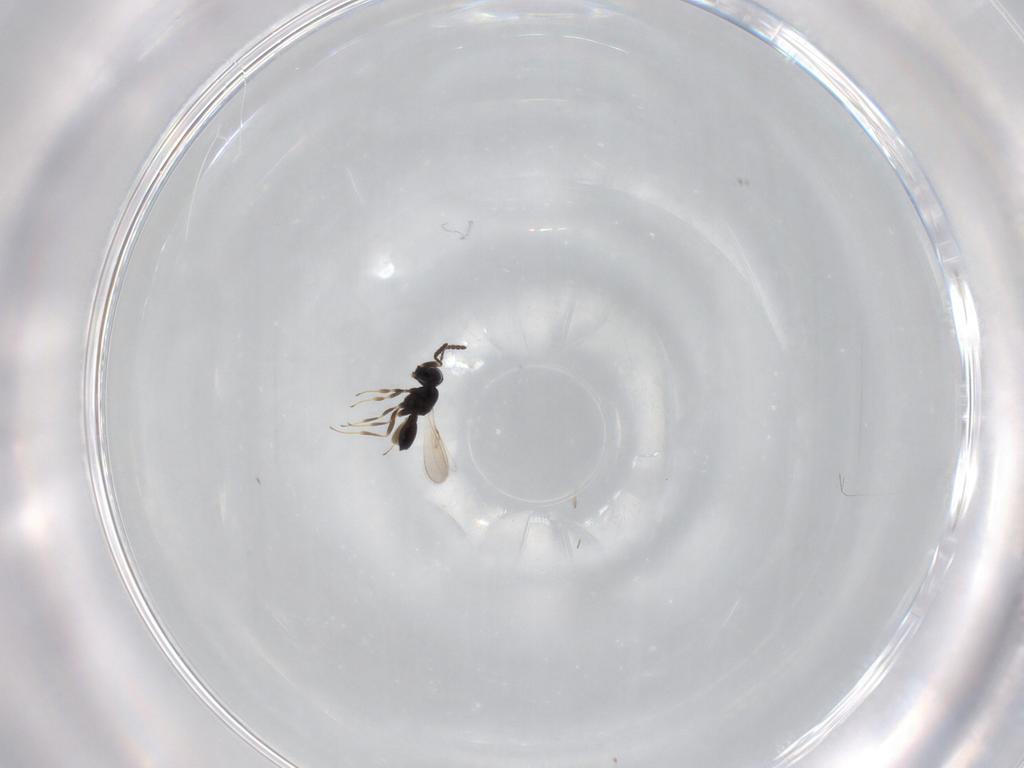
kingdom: Animalia
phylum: Arthropoda
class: Insecta
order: Hymenoptera
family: Scelionidae
